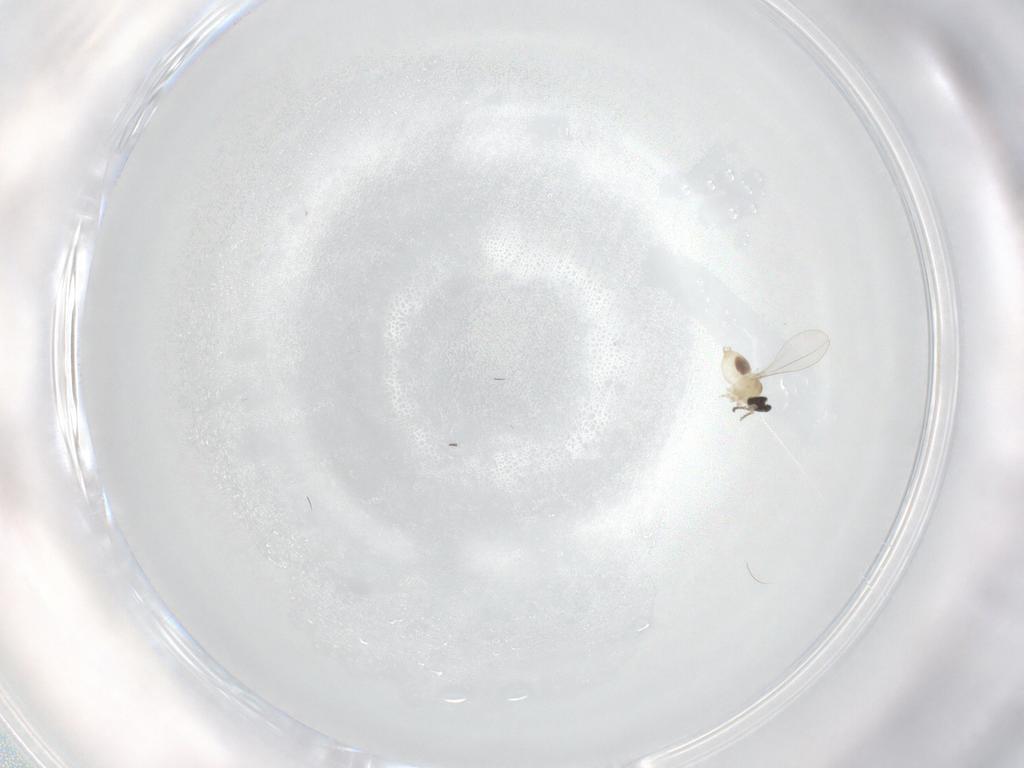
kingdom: Animalia
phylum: Arthropoda
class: Insecta
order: Diptera
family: Cecidomyiidae
